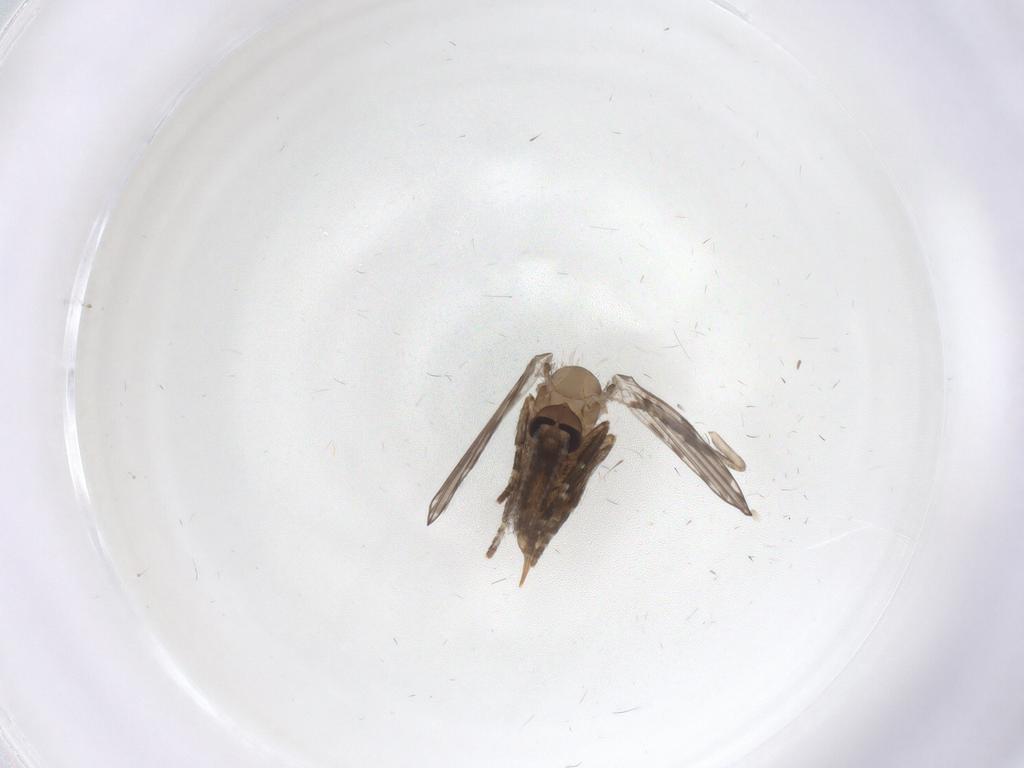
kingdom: Animalia
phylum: Arthropoda
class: Insecta
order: Diptera
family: Psychodidae
